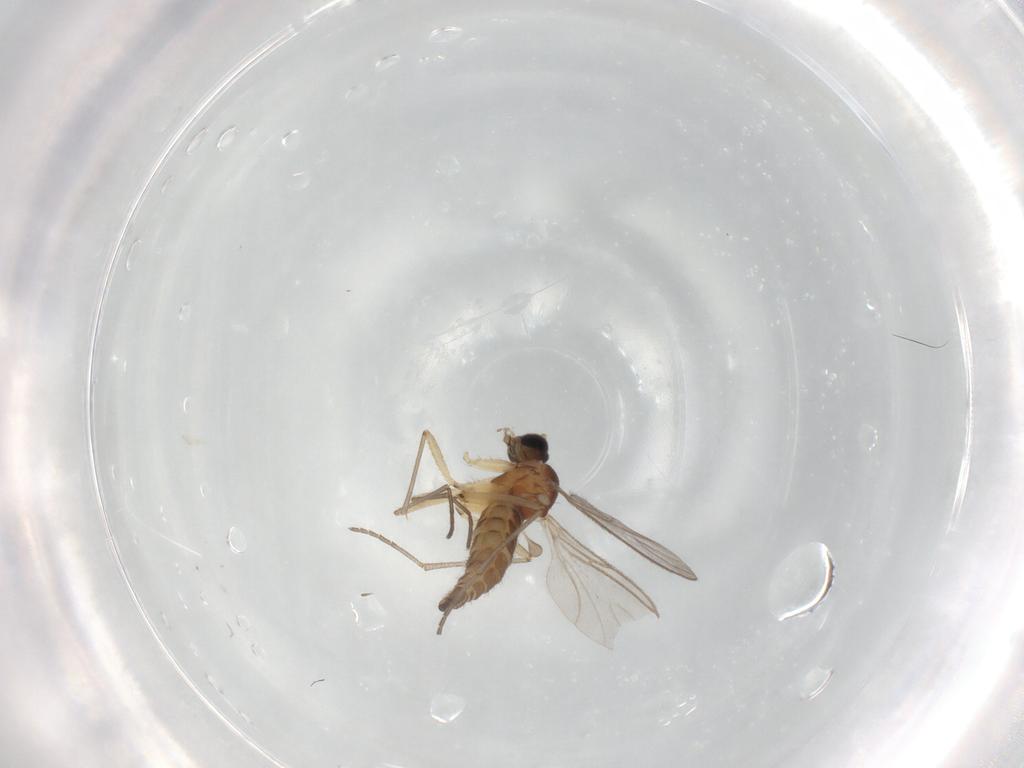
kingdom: Animalia
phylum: Arthropoda
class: Insecta
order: Diptera
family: Sciaridae
